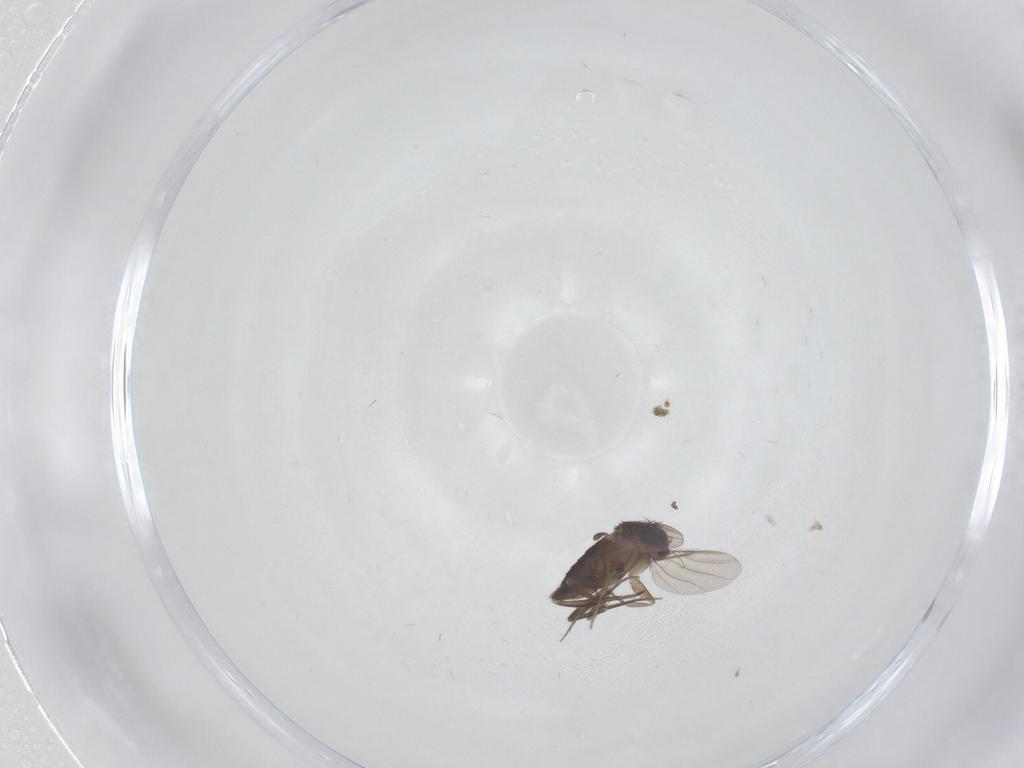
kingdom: Animalia
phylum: Arthropoda
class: Insecta
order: Diptera
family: Phoridae
